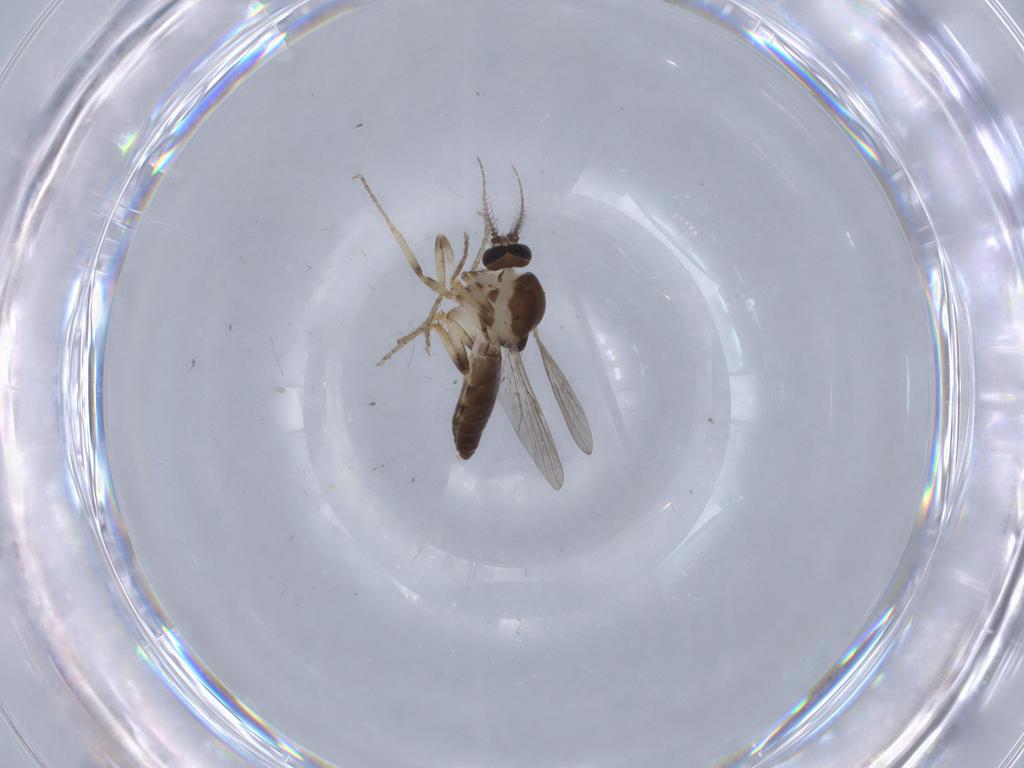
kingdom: Animalia
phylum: Arthropoda
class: Insecta
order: Diptera
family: Ceratopogonidae
